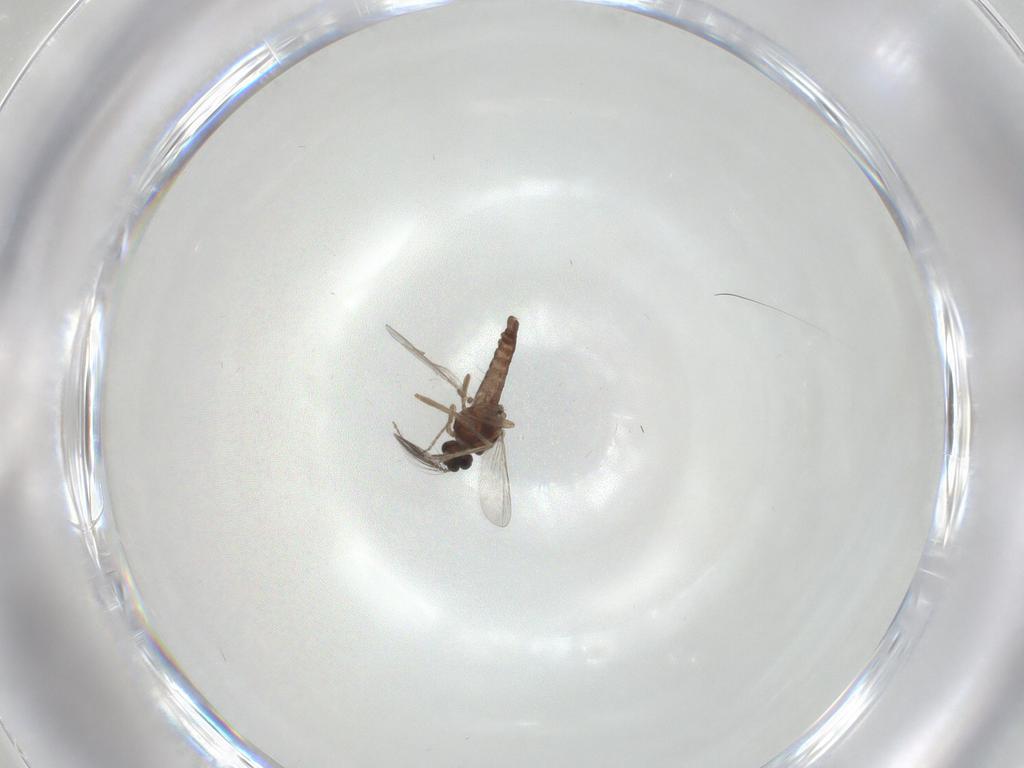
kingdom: Animalia
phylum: Arthropoda
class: Insecta
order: Diptera
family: Ceratopogonidae
